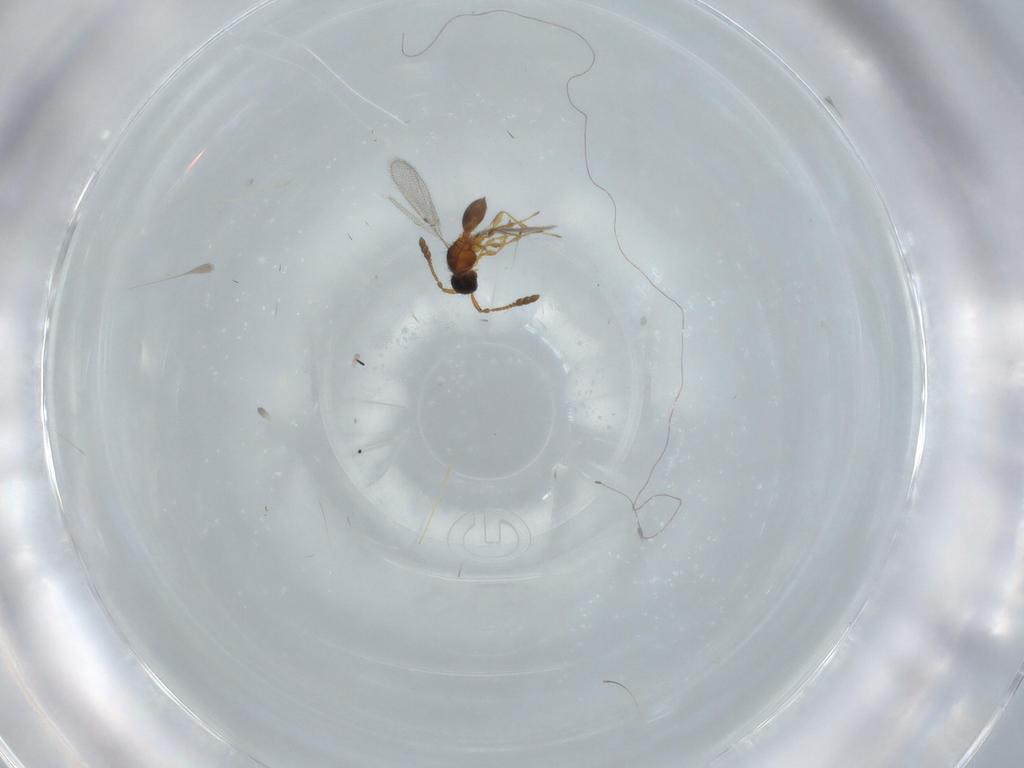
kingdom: Animalia
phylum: Arthropoda
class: Insecta
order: Hymenoptera
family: Diapriidae
